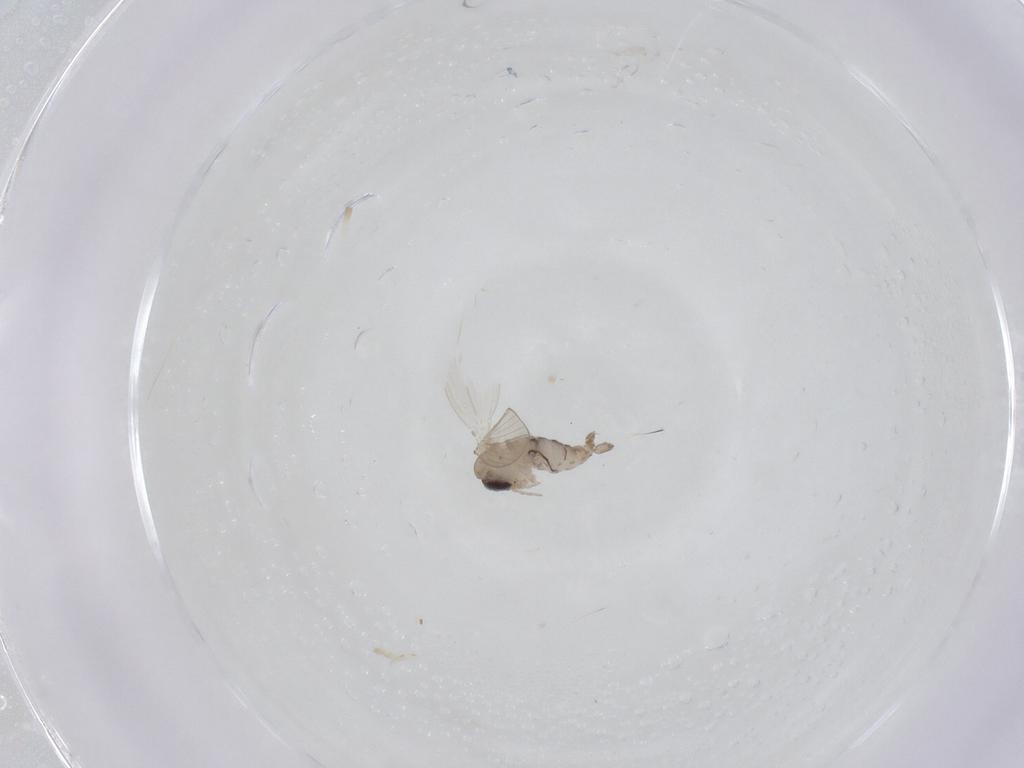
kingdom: Animalia
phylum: Arthropoda
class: Insecta
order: Diptera
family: Psychodidae
